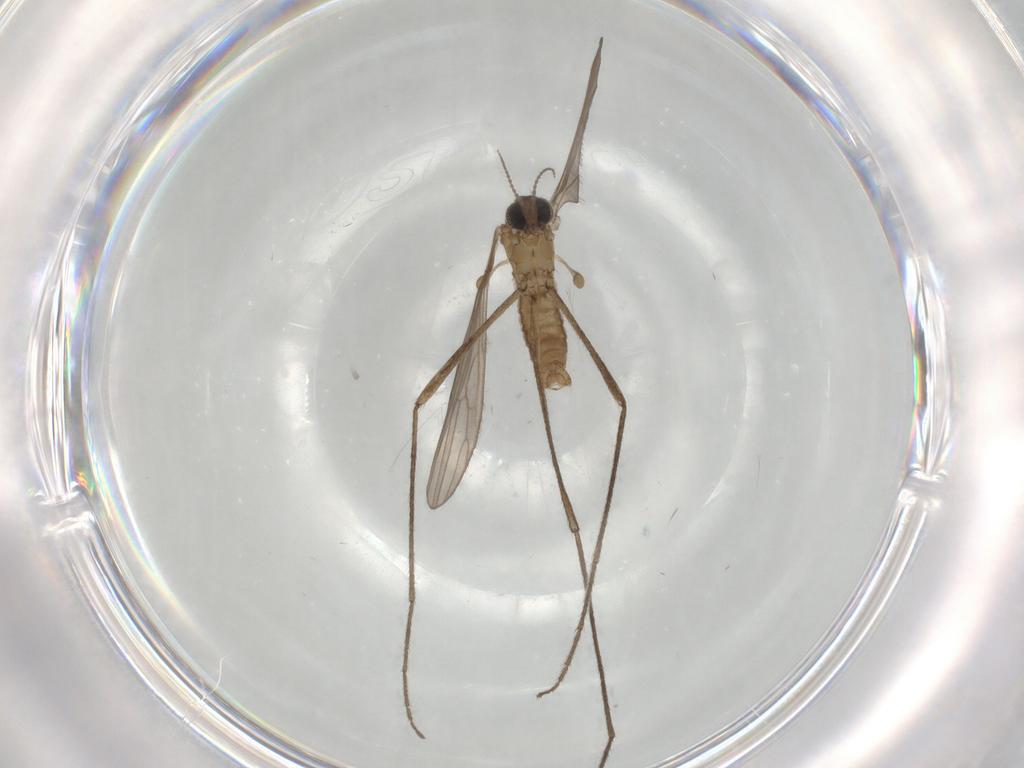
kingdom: Animalia
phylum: Arthropoda
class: Insecta
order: Diptera
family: Limoniidae
